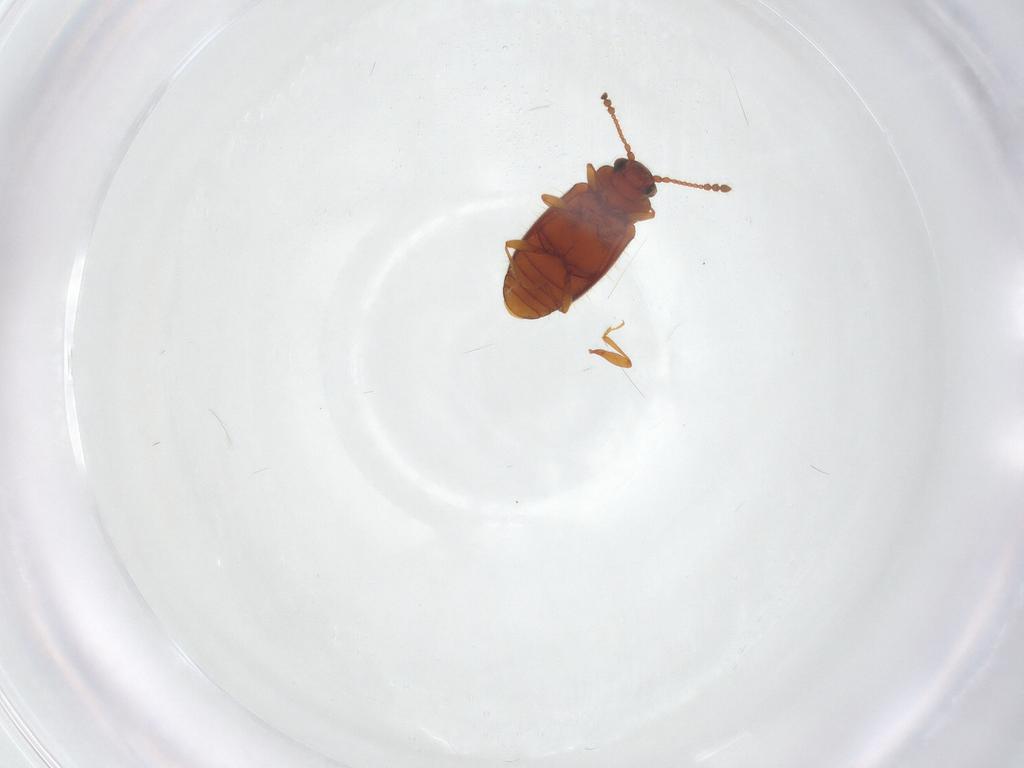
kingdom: Animalia
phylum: Arthropoda
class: Insecta
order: Coleoptera
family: Cryptophagidae
